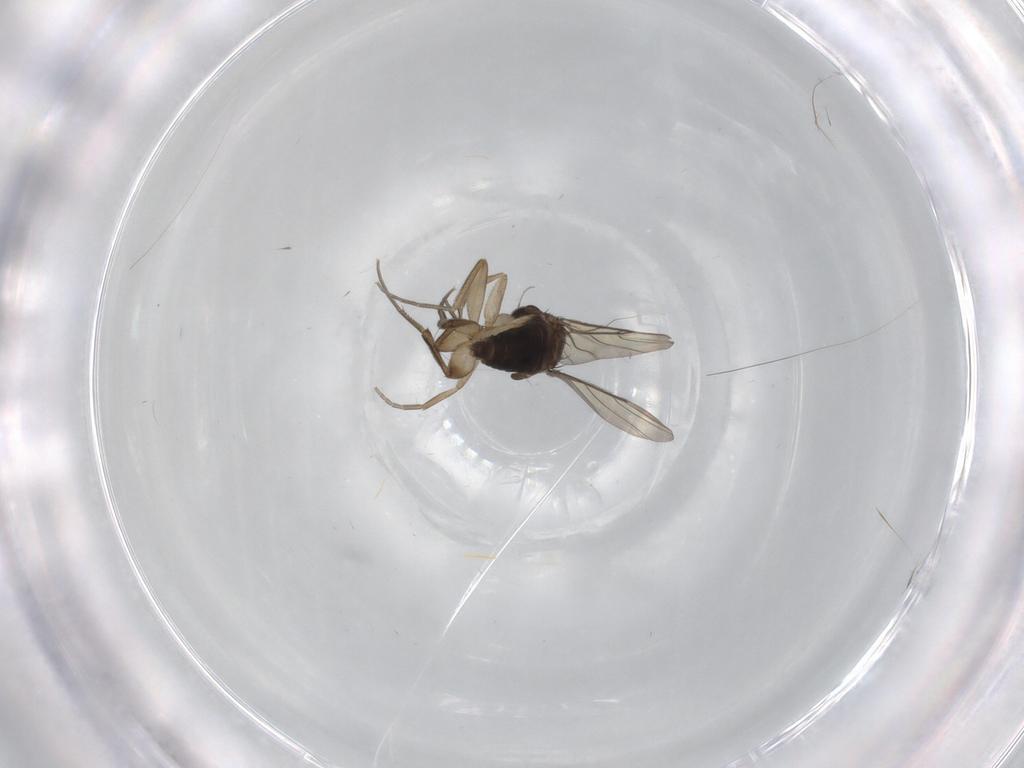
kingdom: Animalia
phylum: Arthropoda
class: Insecta
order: Diptera
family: Phoridae
